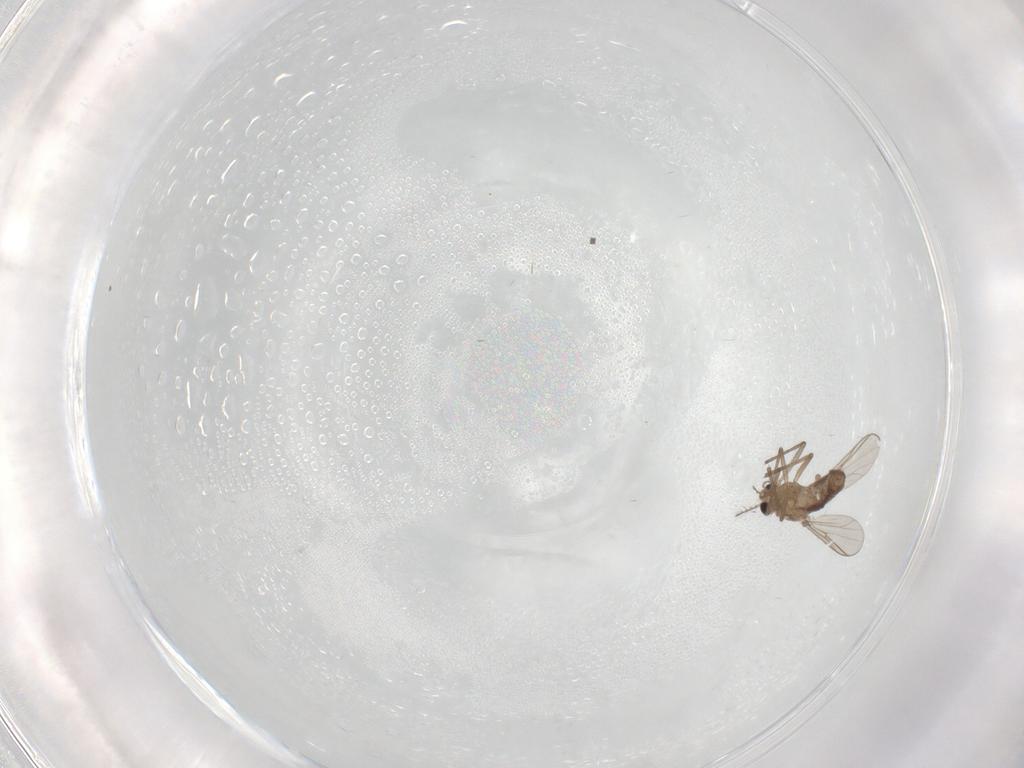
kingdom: Animalia
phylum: Arthropoda
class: Insecta
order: Diptera
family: Chironomidae
